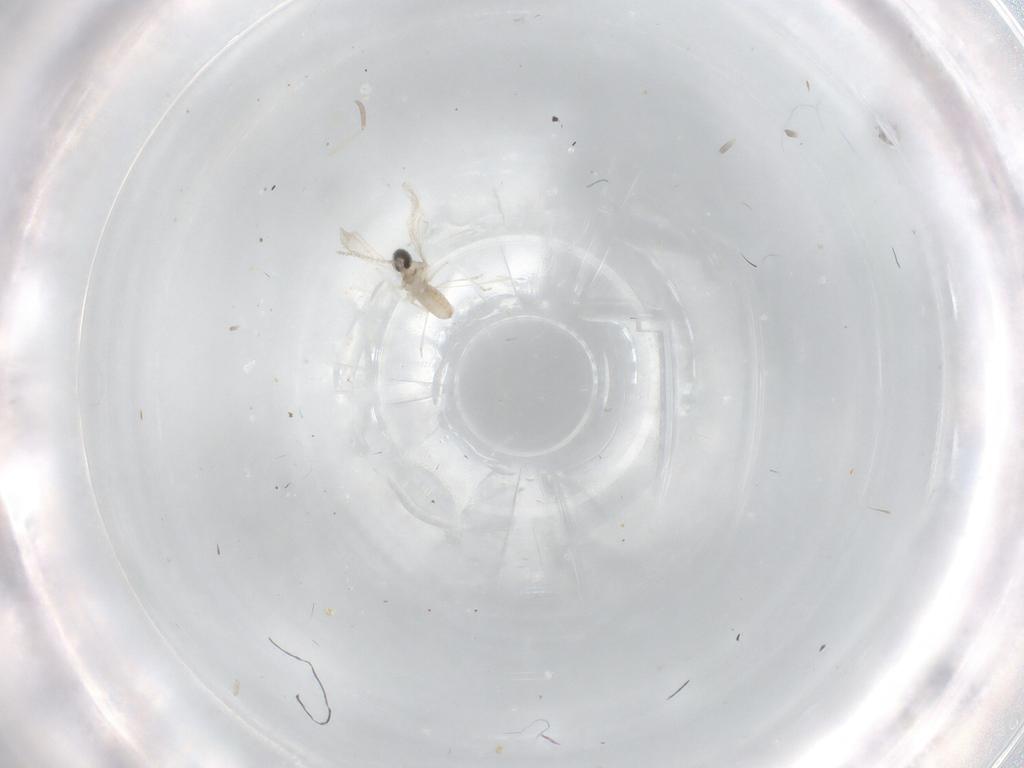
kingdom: Animalia
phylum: Arthropoda
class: Insecta
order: Diptera
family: Cecidomyiidae
